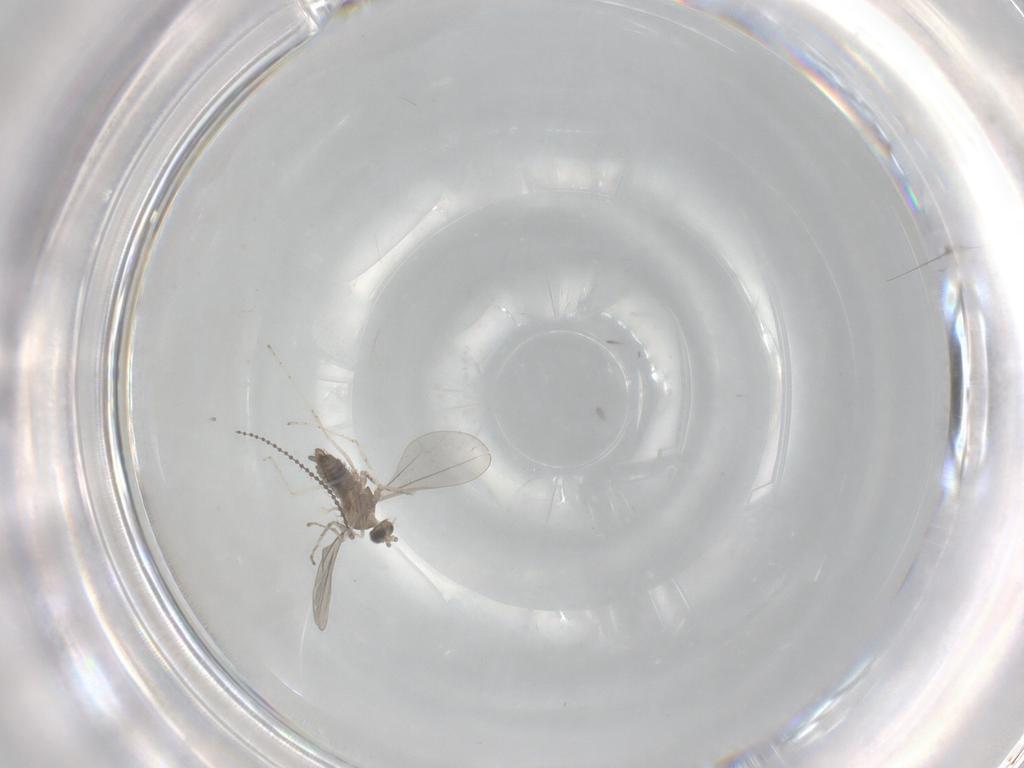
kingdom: Animalia
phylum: Arthropoda
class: Insecta
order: Diptera
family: Cecidomyiidae
